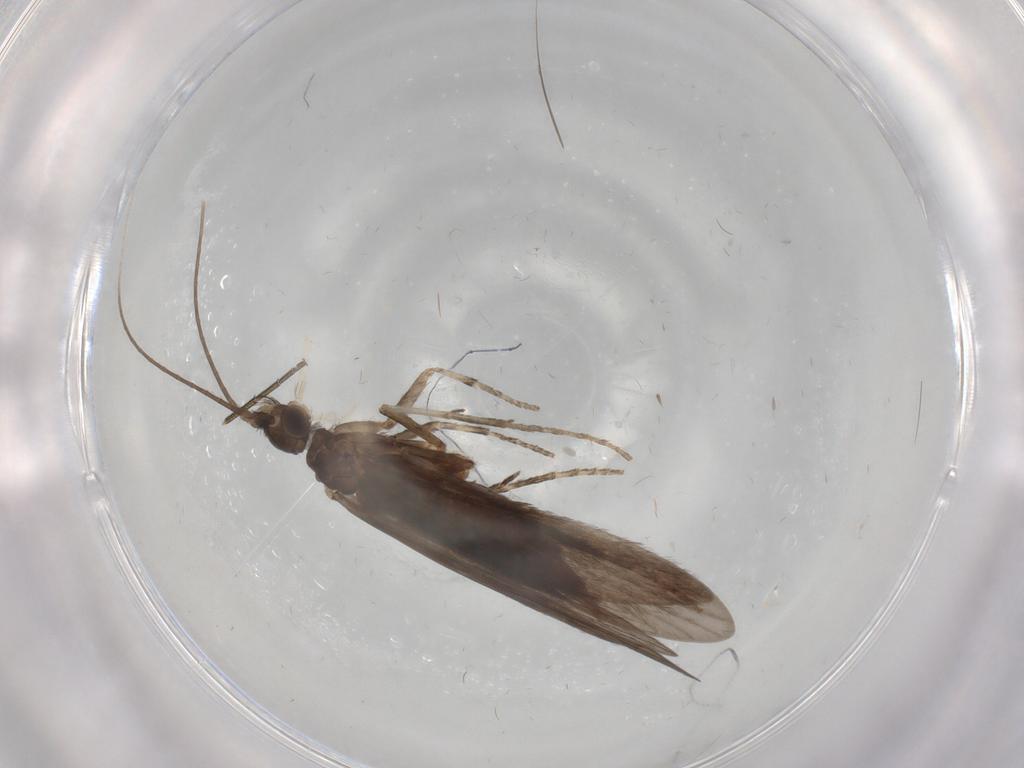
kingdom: Animalia
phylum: Arthropoda
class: Insecta
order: Trichoptera
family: Xiphocentronidae
